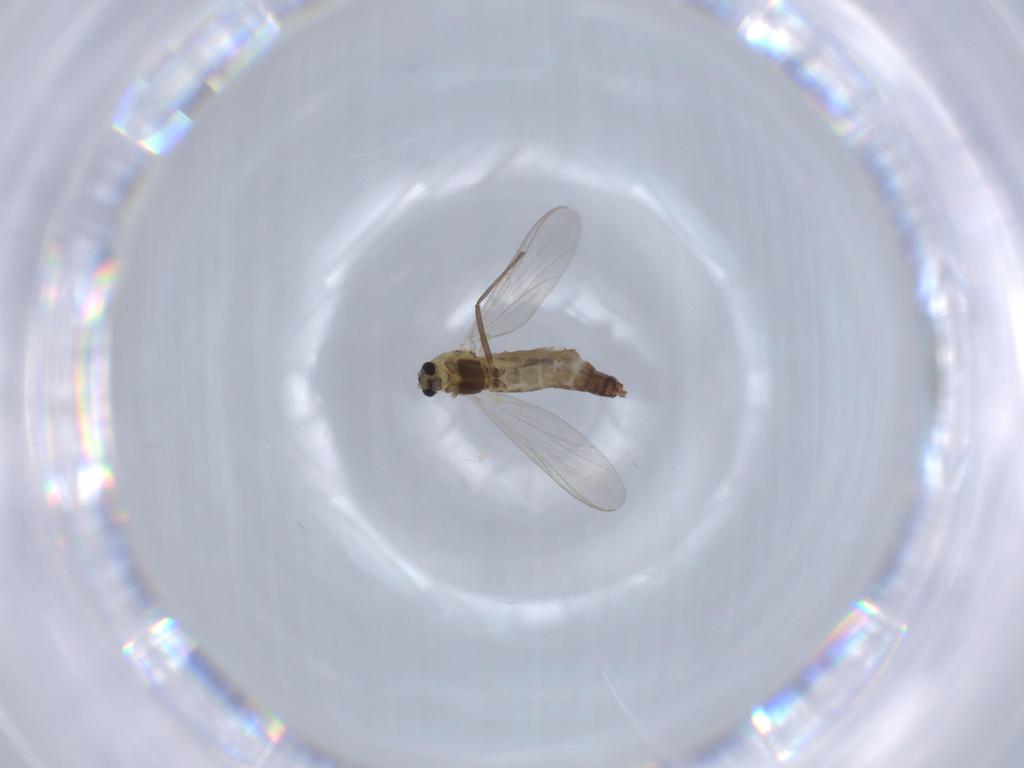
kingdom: Animalia
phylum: Arthropoda
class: Insecta
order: Diptera
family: Chironomidae
